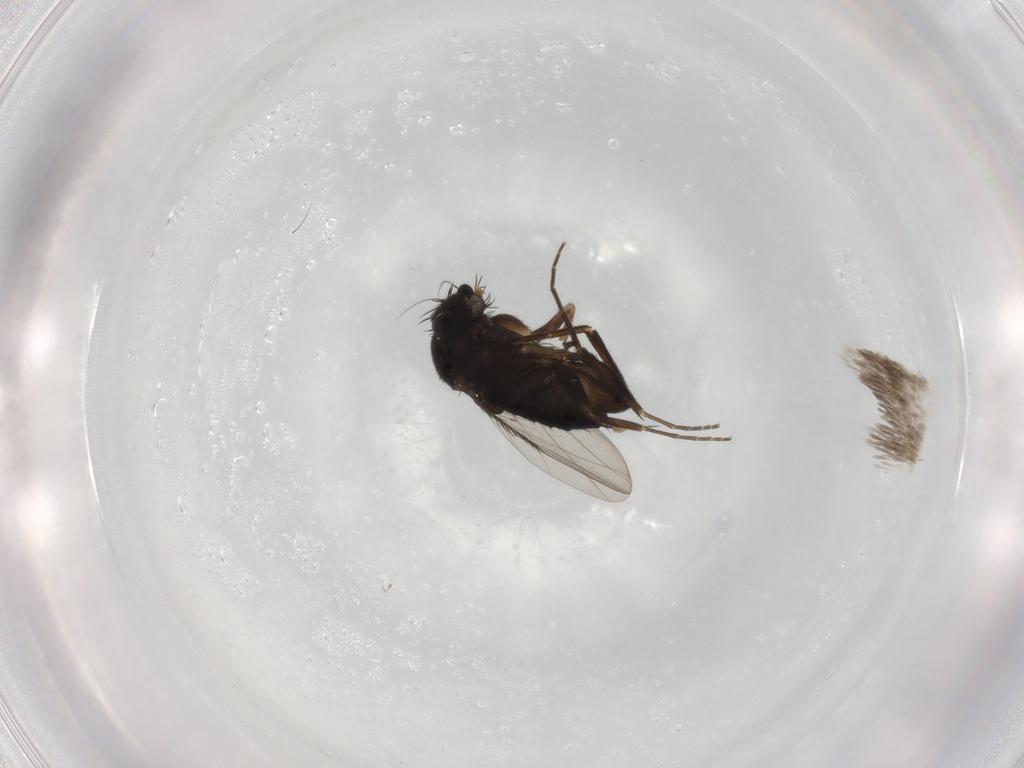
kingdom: Animalia
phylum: Arthropoda
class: Insecta
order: Diptera
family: Phoridae
